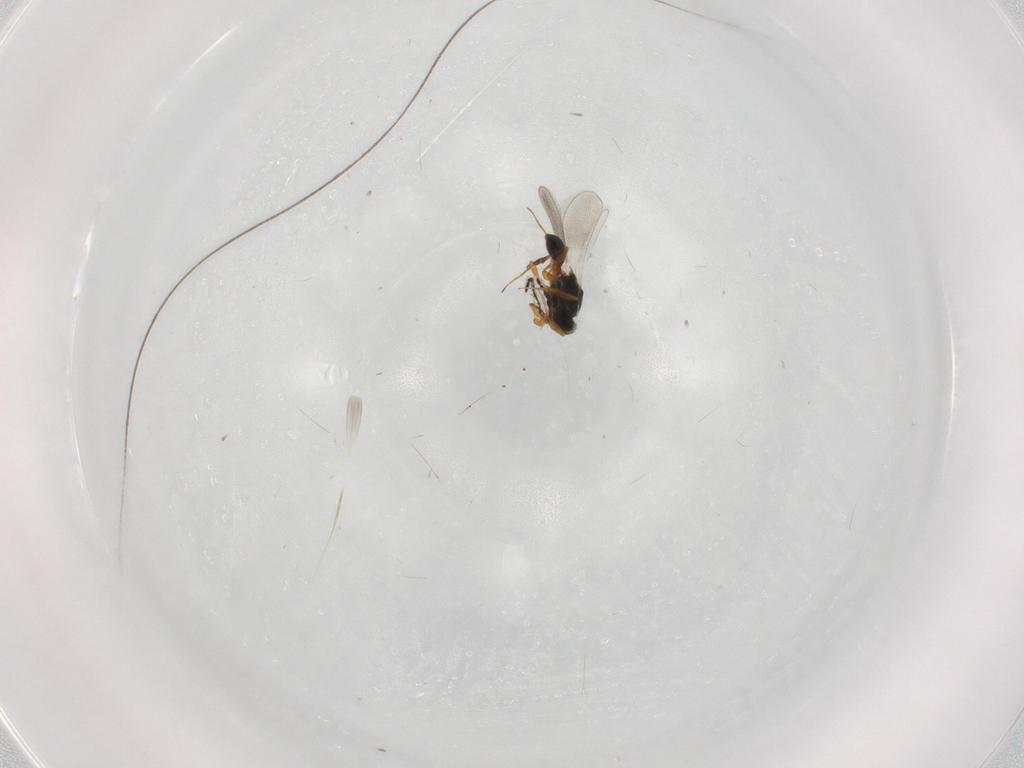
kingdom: Animalia
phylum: Arthropoda
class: Insecta
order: Hymenoptera
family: Platygastridae
